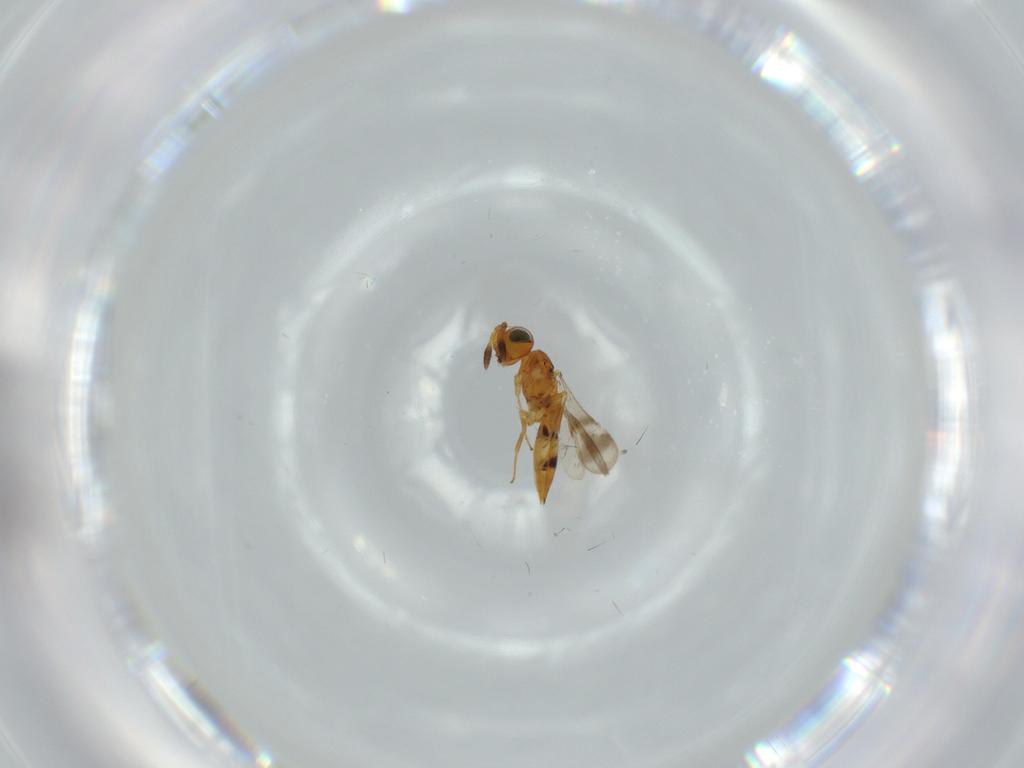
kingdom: Animalia
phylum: Arthropoda
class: Insecta
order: Hymenoptera
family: Scelionidae
